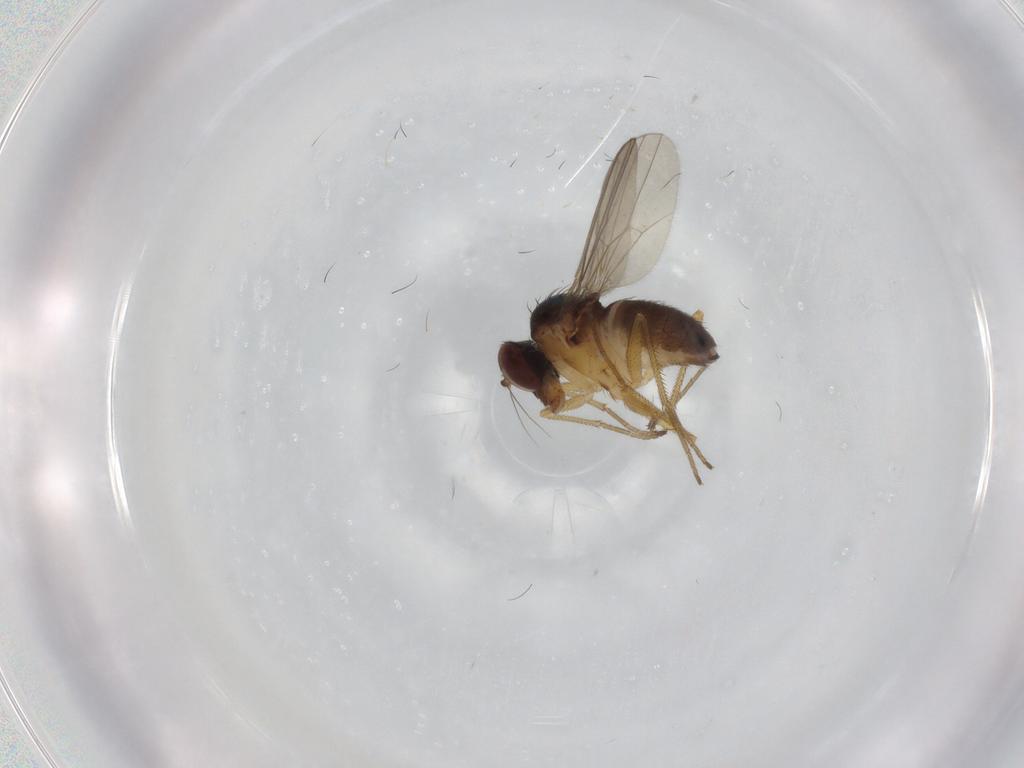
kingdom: Animalia
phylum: Arthropoda
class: Insecta
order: Diptera
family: Dolichopodidae
